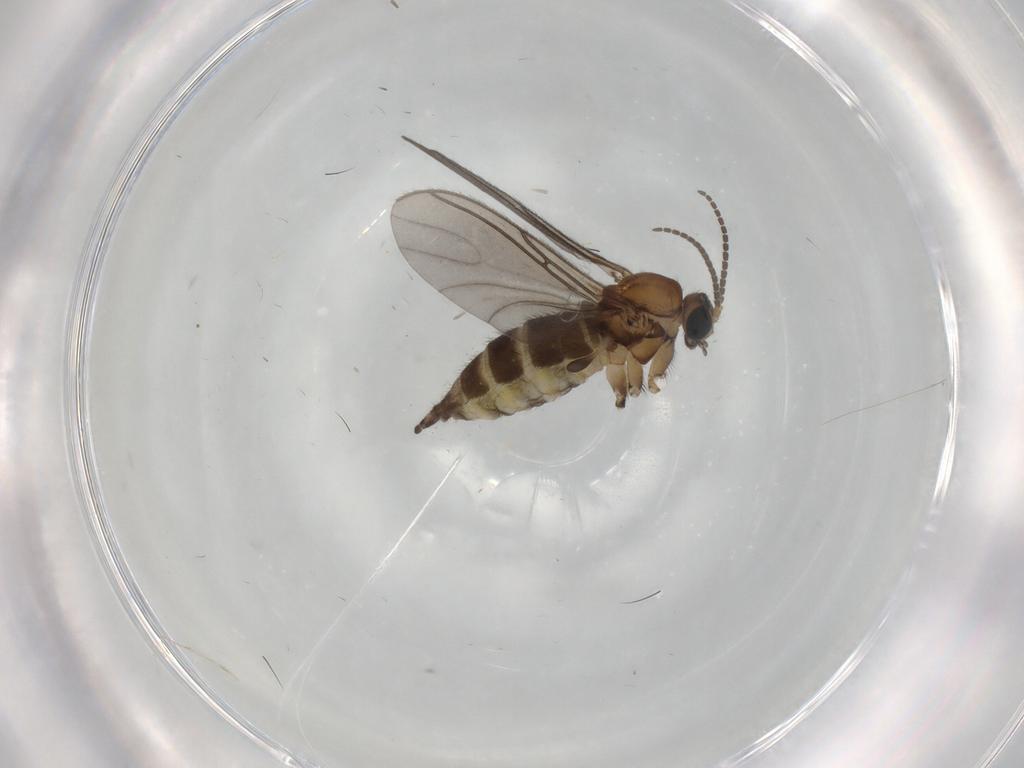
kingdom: Animalia
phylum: Arthropoda
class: Insecta
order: Diptera
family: Sciaridae
